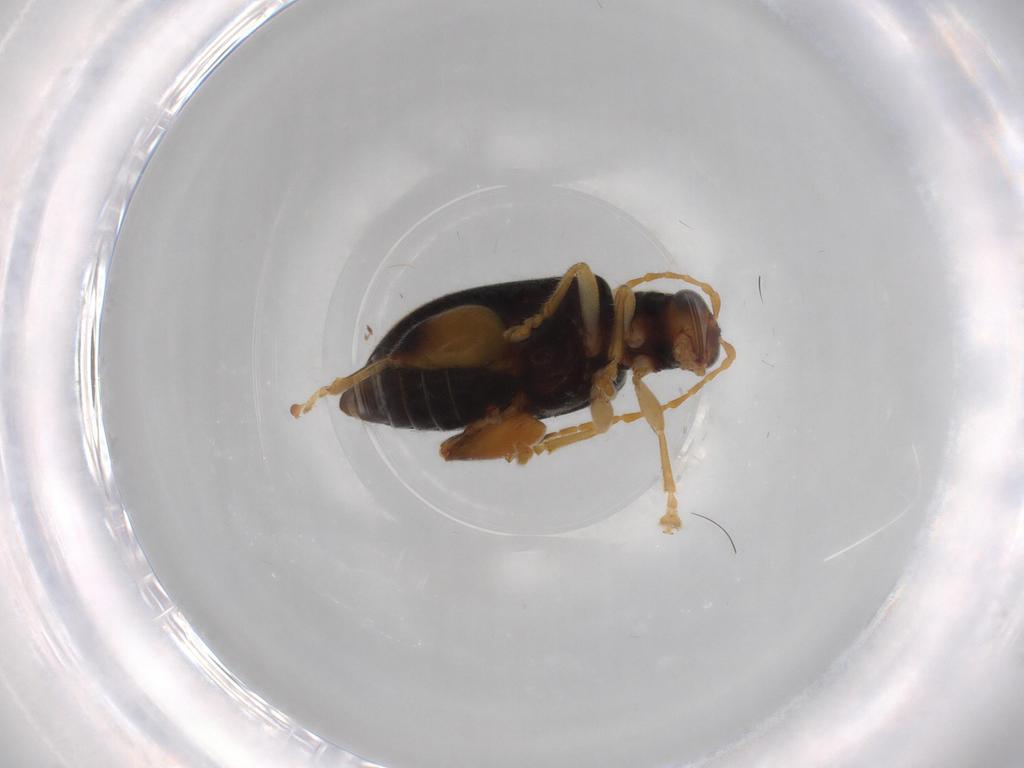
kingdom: Animalia
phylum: Arthropoda
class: Insecta
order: Coleoptera
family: Chrysomelidae
